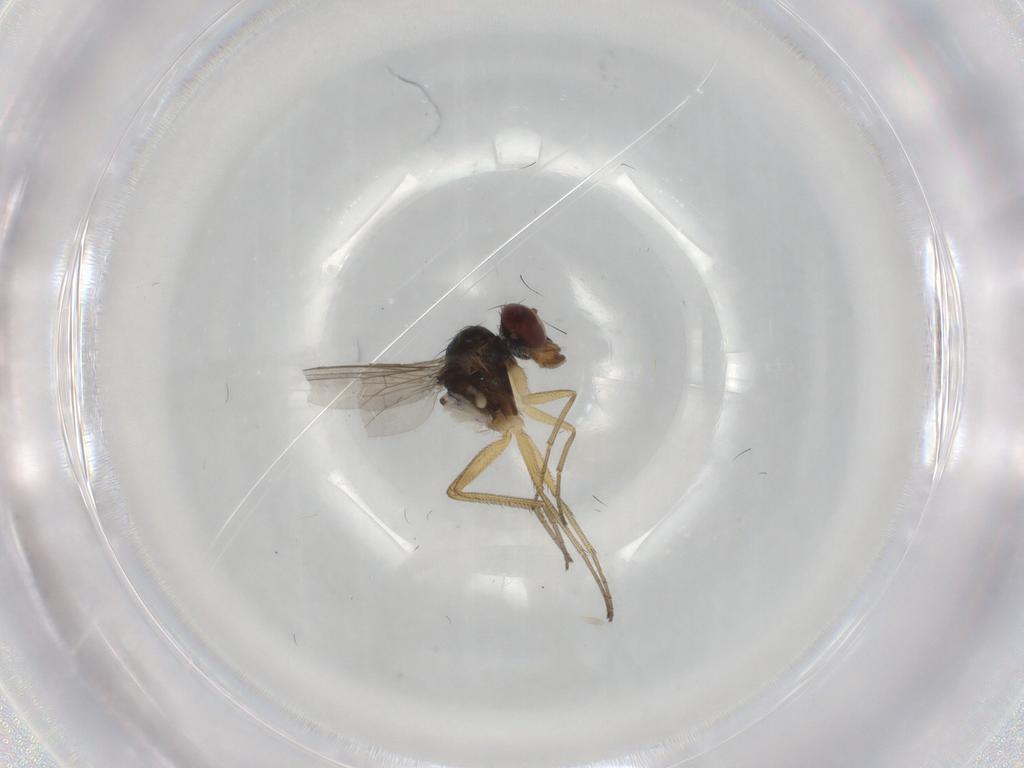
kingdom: Animalia
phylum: Arthropoda
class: Insecta
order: Diptera
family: Dolichopodidae
